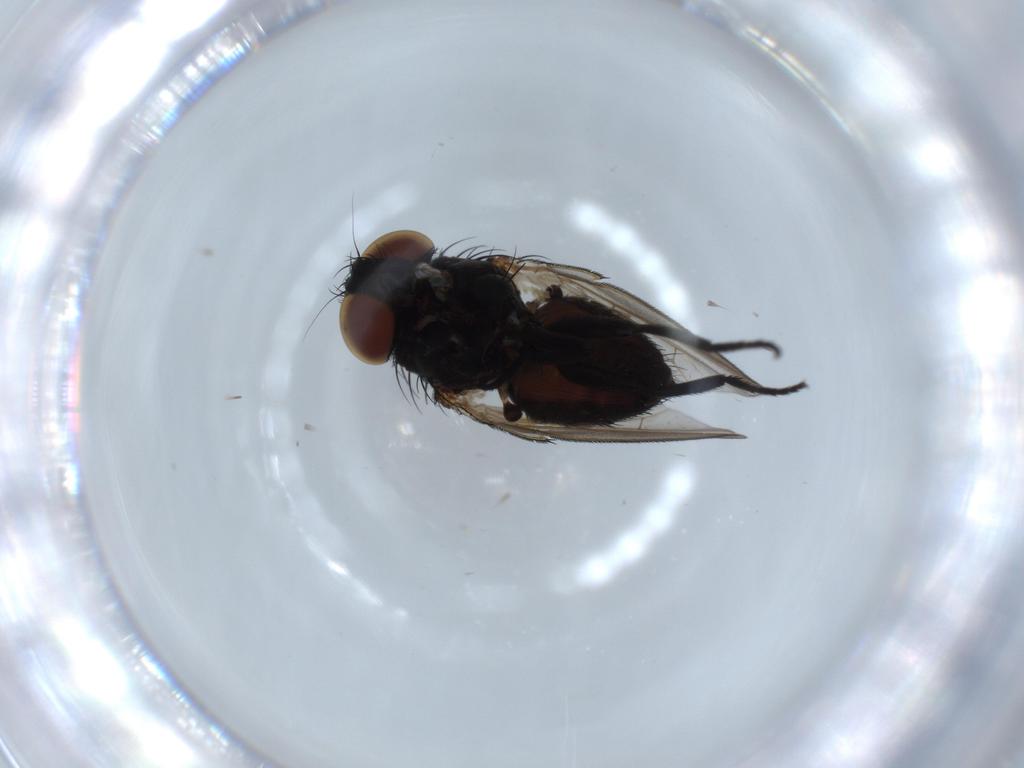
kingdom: Animalia
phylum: Arthropoda
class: Insecta
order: Diptera
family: Milichiidae
